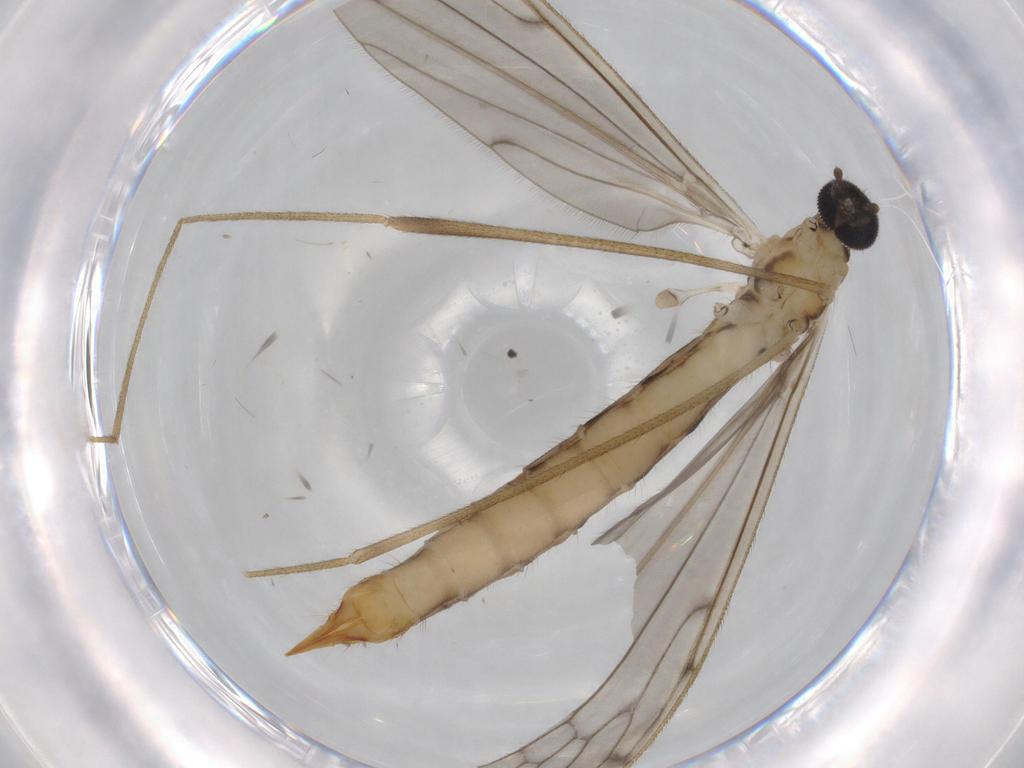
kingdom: Animalia
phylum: Arthropoda
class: Insecta
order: Diptera
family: Cecidomyiidae
